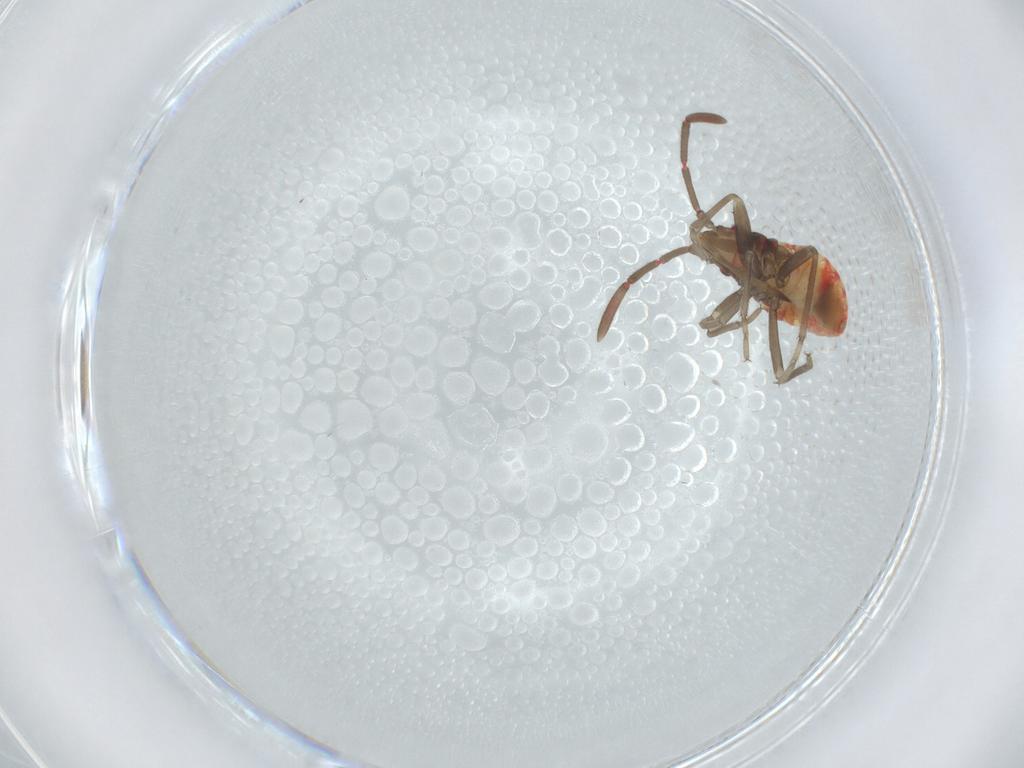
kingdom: Animalia
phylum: Arthropoda
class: Insecta
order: Hemiptera
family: Rhyparochromidae
